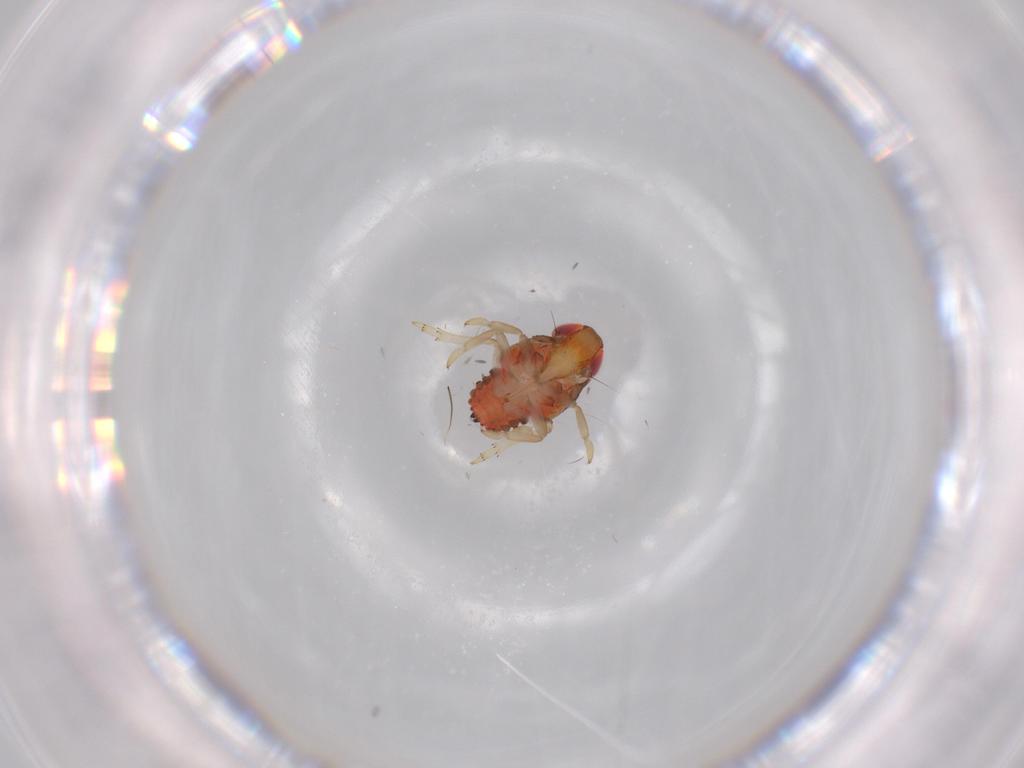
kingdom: Animalia
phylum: Arthropoda
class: Insecta
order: Hemiptera
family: Issidae
